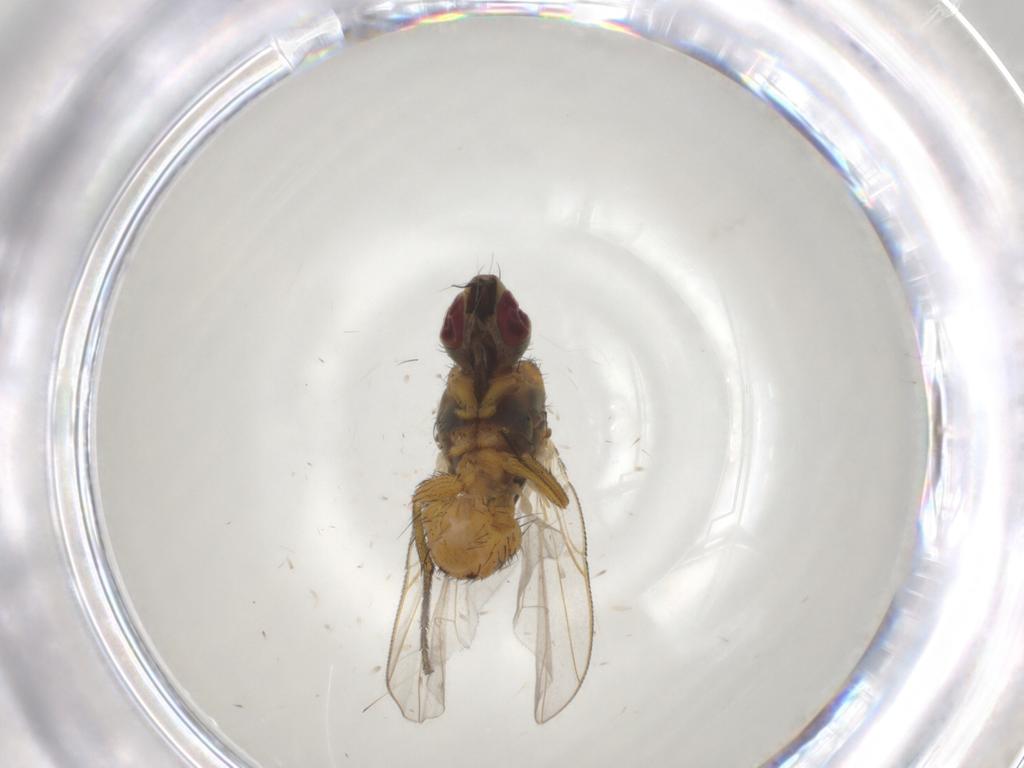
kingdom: Animalia
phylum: Arthropoda
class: Insecta
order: Diptera
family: Muscidae
